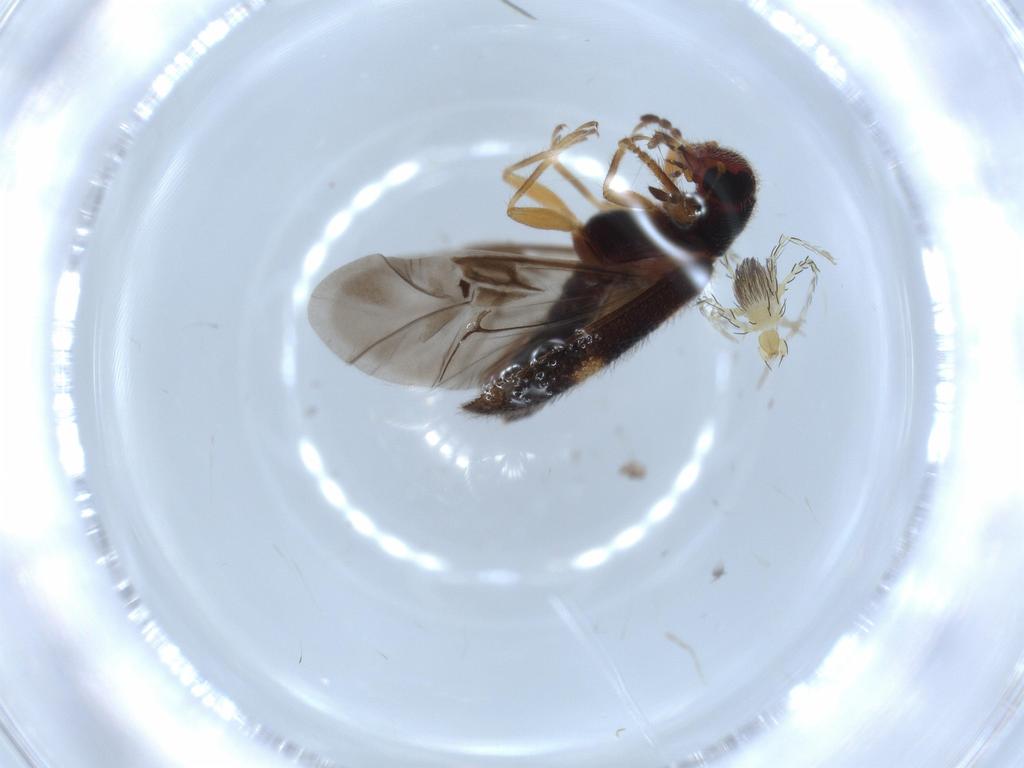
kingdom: Animalia
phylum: Arthropoda
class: Insecta
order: Coleoptera
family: Cleridae
